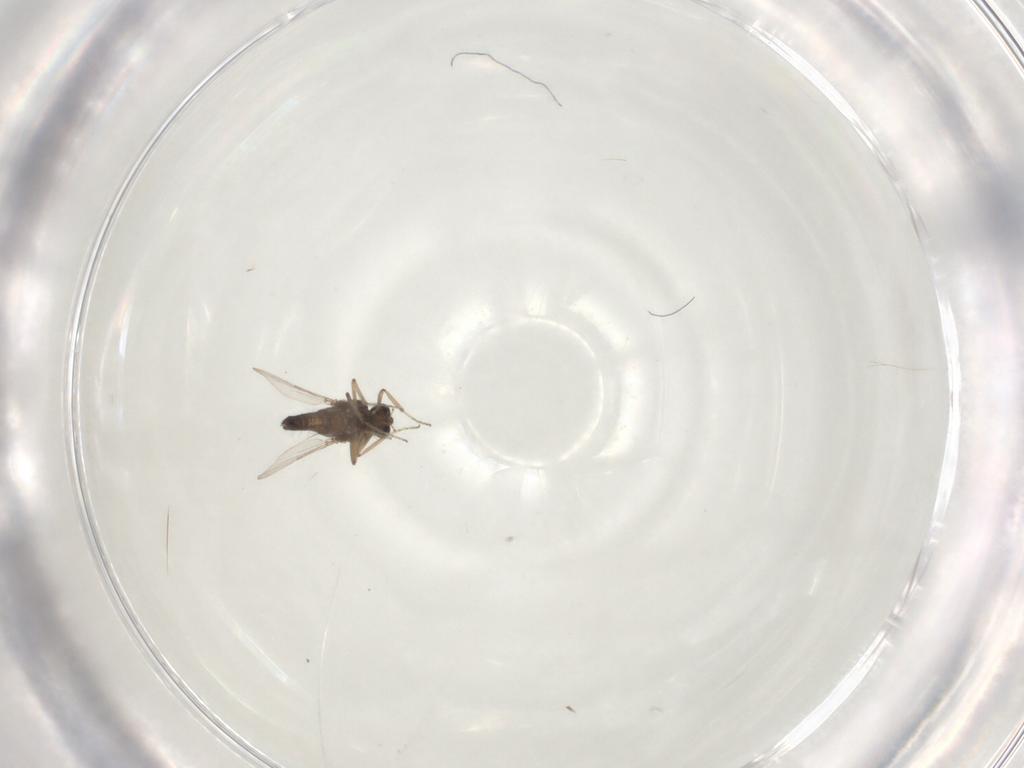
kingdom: Animalia
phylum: Arthropoda
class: Insecta
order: Diptera
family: Ceratopogonidae
